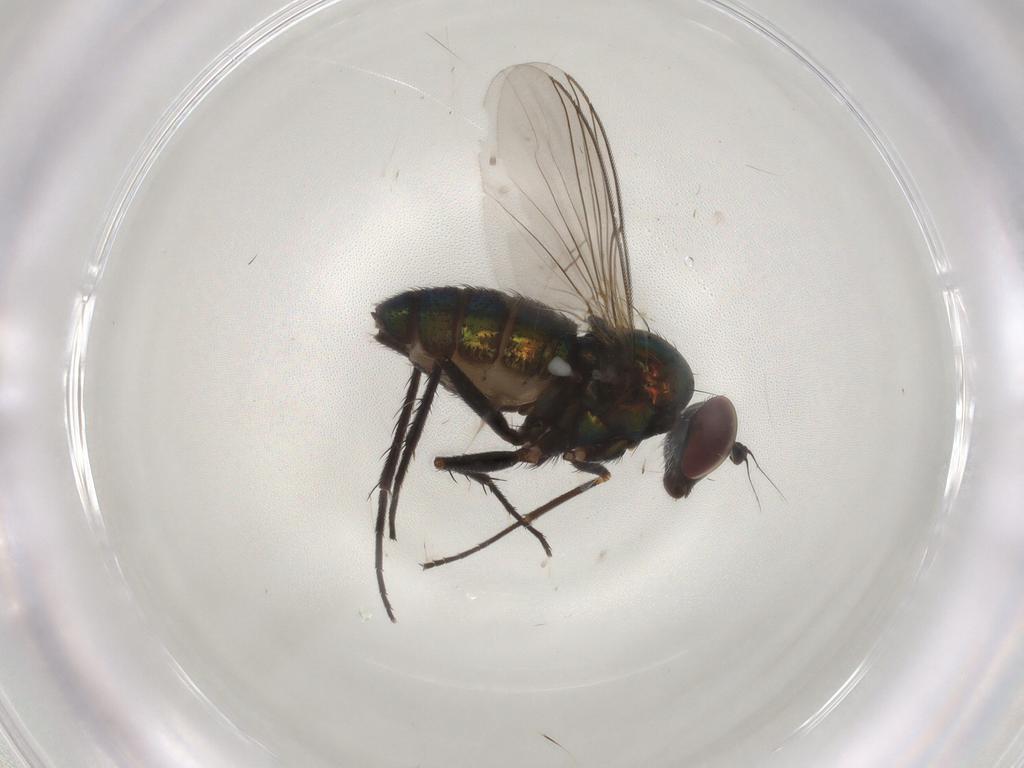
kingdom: Animalia
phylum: Arthropoda
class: Insecta
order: Diptera
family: Dolichopodidae
